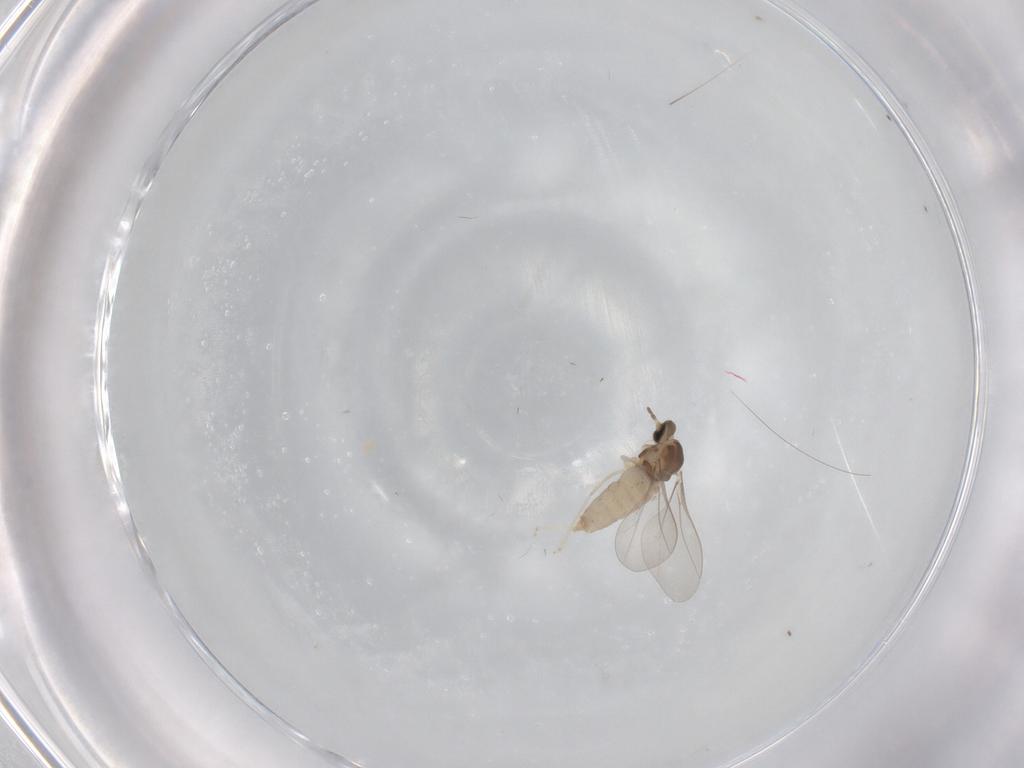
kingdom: Animalia
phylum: Arthropoda
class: Insecta
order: Diptera
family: Cecidomyiidae
